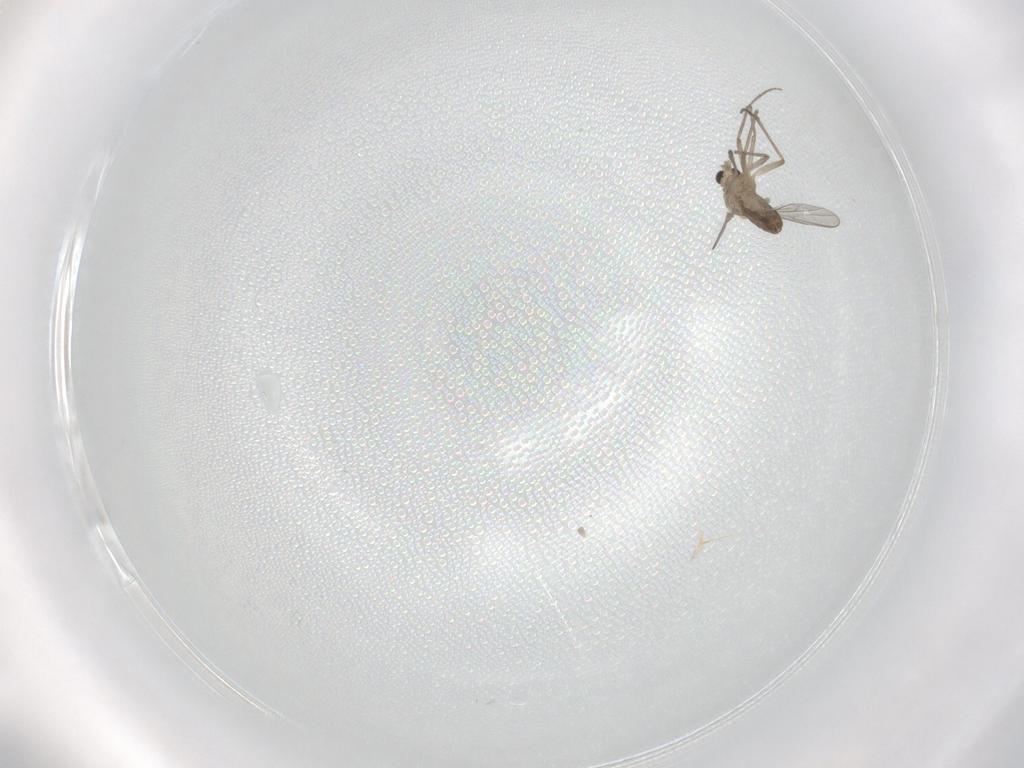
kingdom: Animalia
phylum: Arthropoda
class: Insecta
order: Diptera
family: Chironomidae
